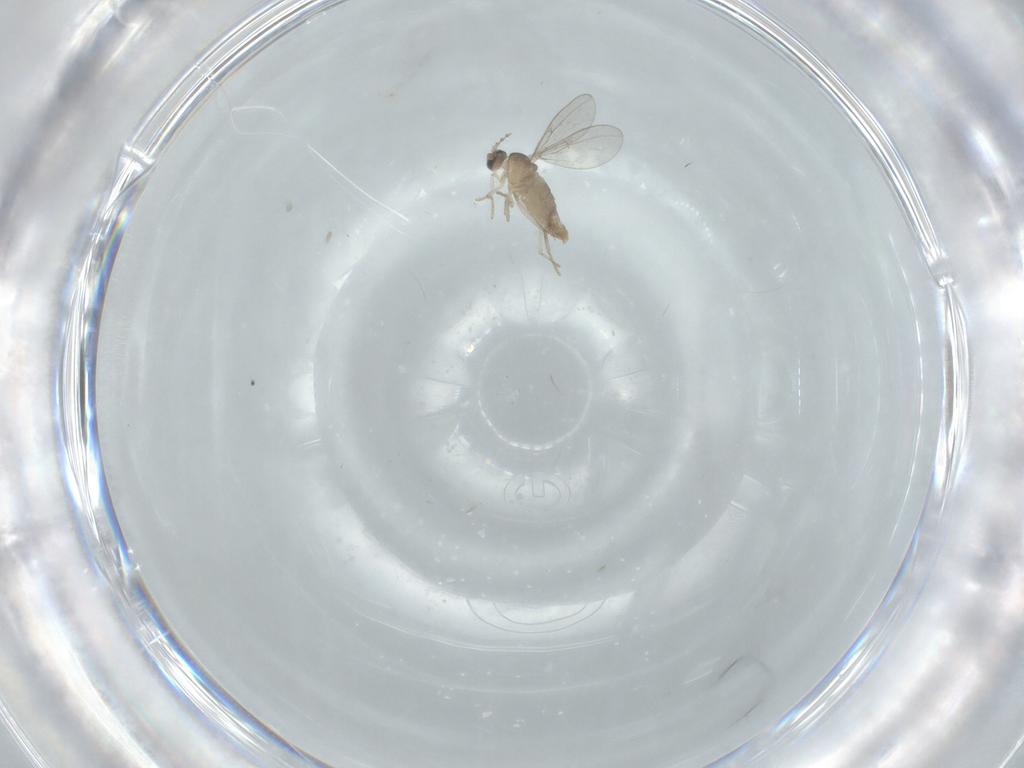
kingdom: Animalia
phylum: Arthropoda
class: Insecta
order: Diptera
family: Cecidomyiidae
